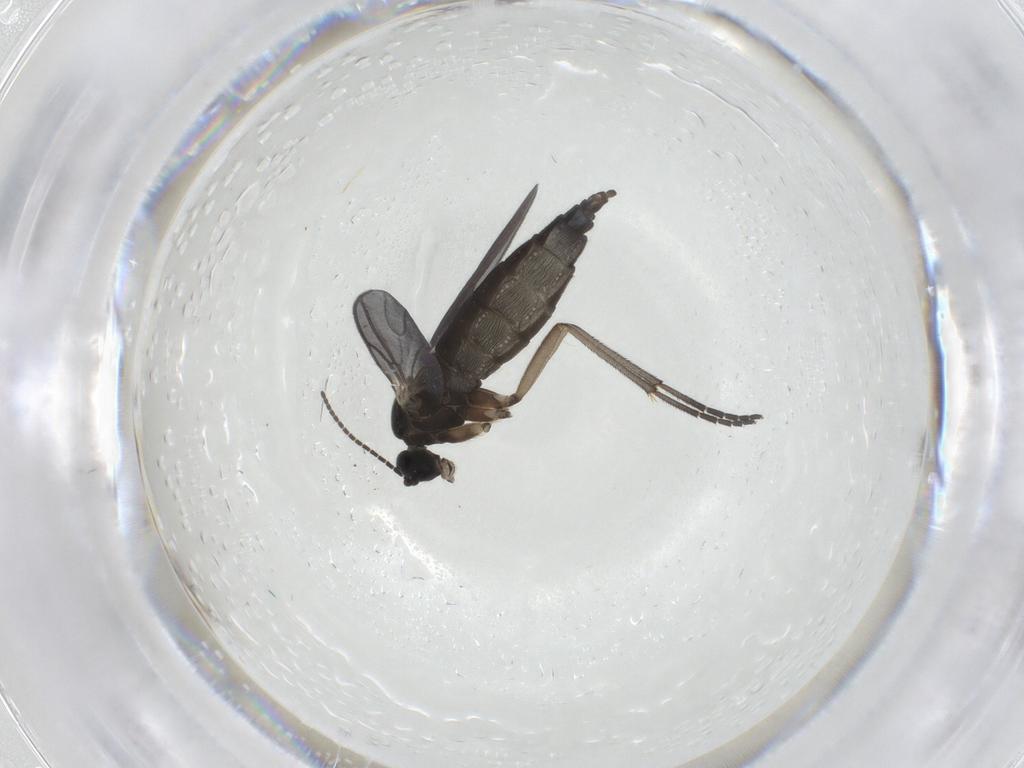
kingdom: Animalia
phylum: Arthropoda
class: Insecta
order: Diptera
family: Sciaridae
